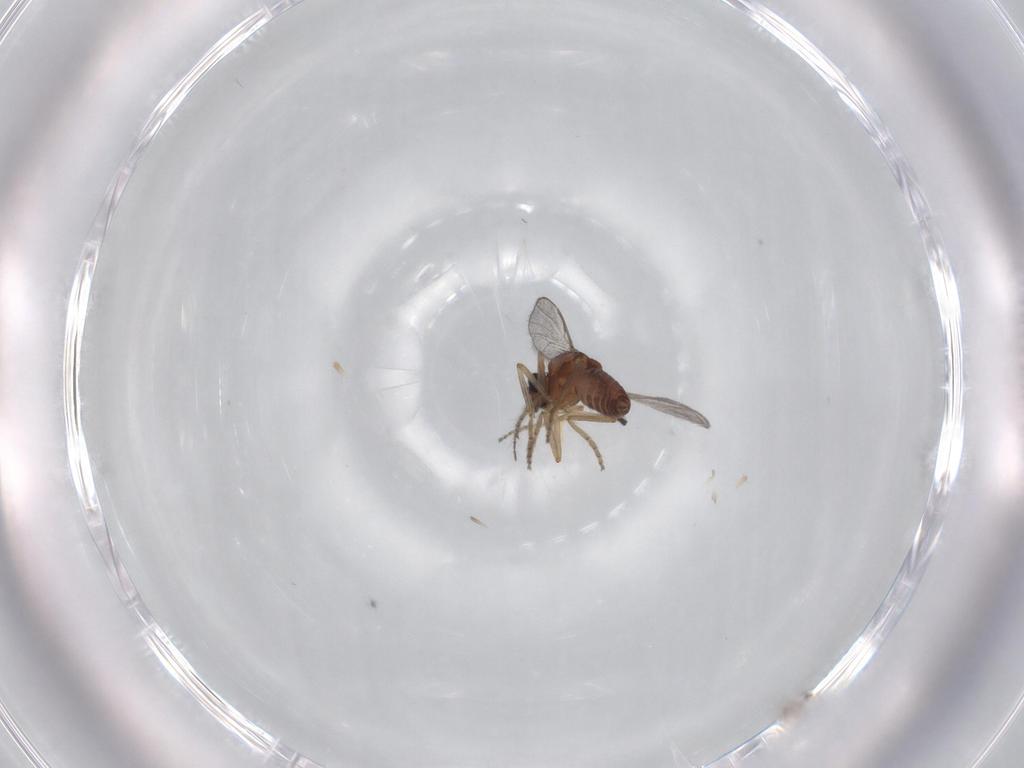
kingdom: Animalia
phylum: Arthropoda
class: Insecta
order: Diptera
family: Ceratopogonidae
